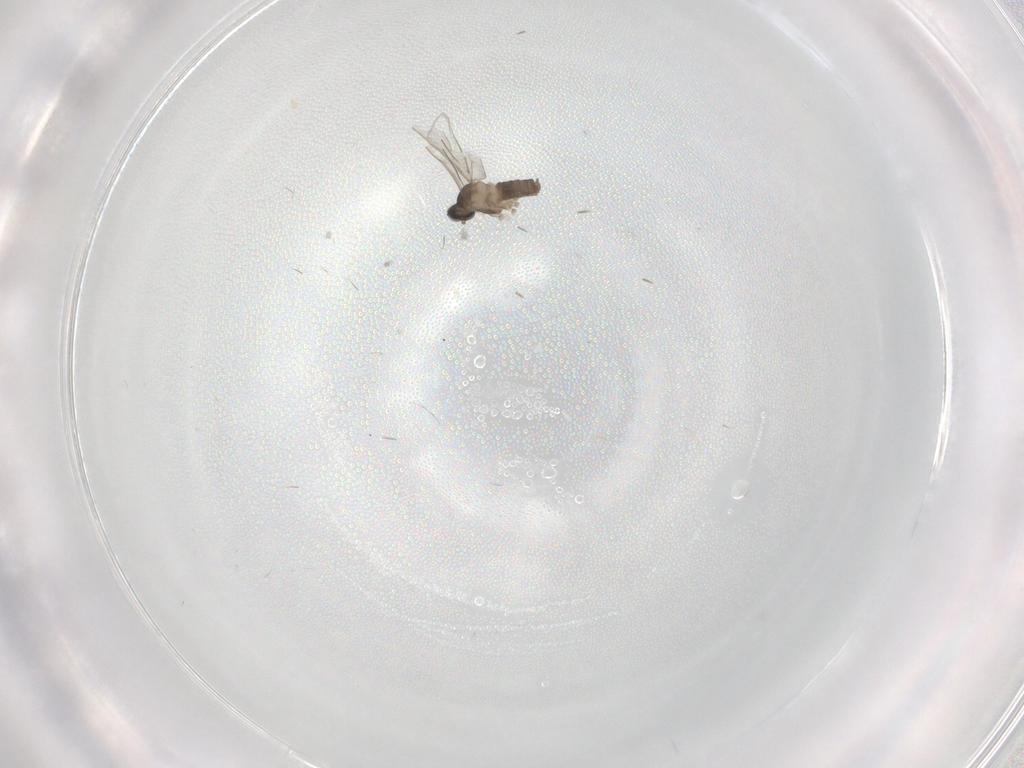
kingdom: Animalia
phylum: Arthropoda
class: Insecta
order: Diptera
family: Cecidomyiidae
